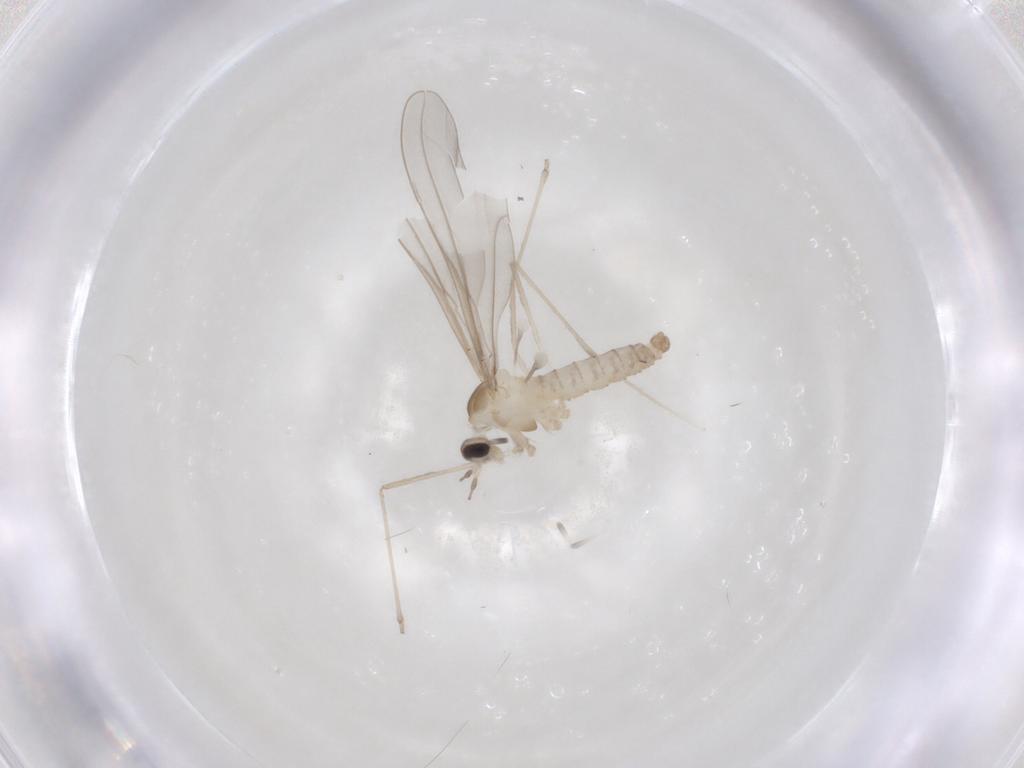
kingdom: Animalia
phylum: Arthropoda
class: Insecta
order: Diptera
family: Cecidomyiidae
